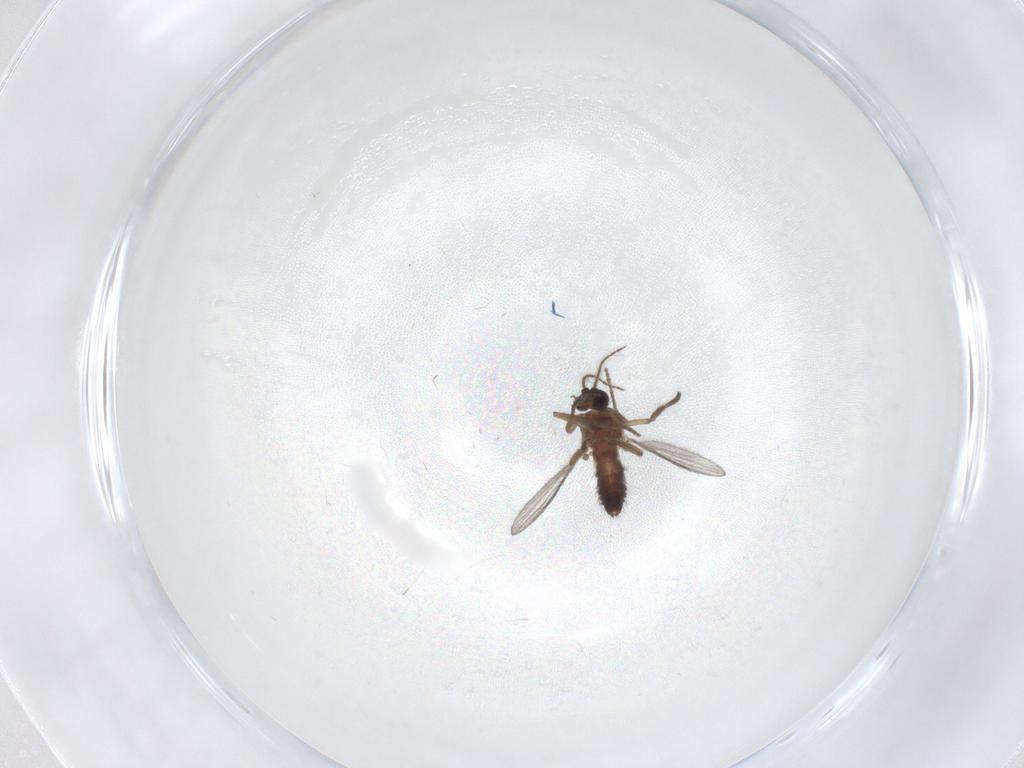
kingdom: Animalia
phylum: Arthropoda
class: Insecta
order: Diptera
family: Ceratopogonidae
